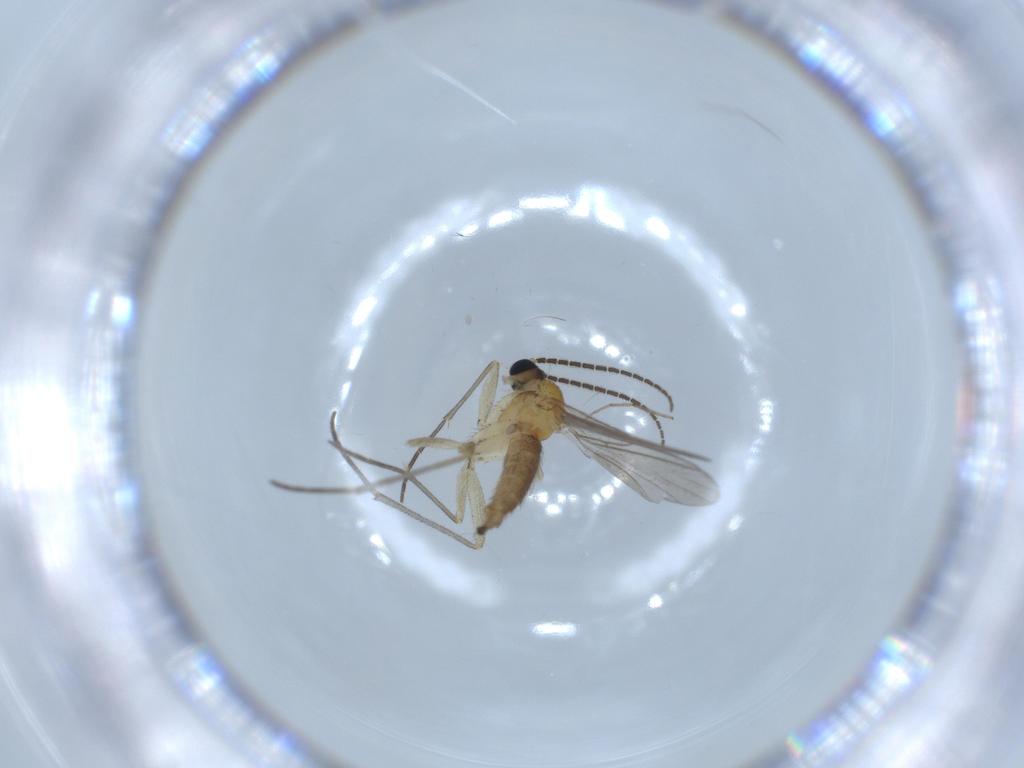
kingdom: Animalia
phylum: Arthropoda
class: Insecta
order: Diptera
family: Sciaridae
